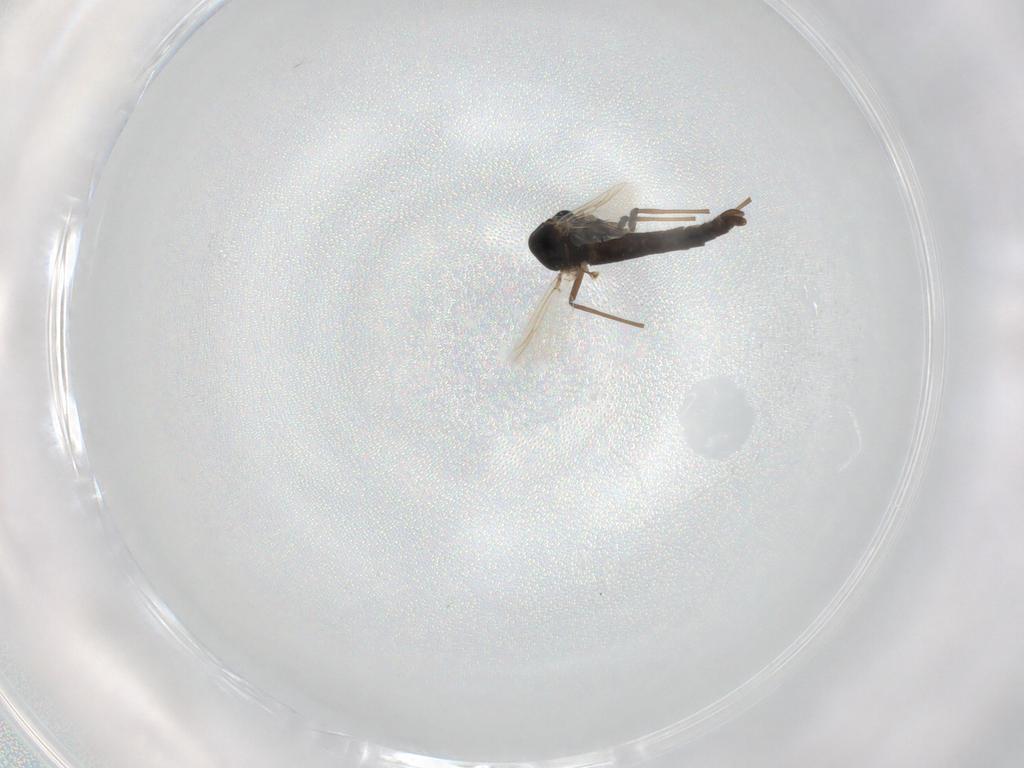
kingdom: Animalia
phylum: Arthropoda
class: Insecta
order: Diptera
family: Chironomidae
